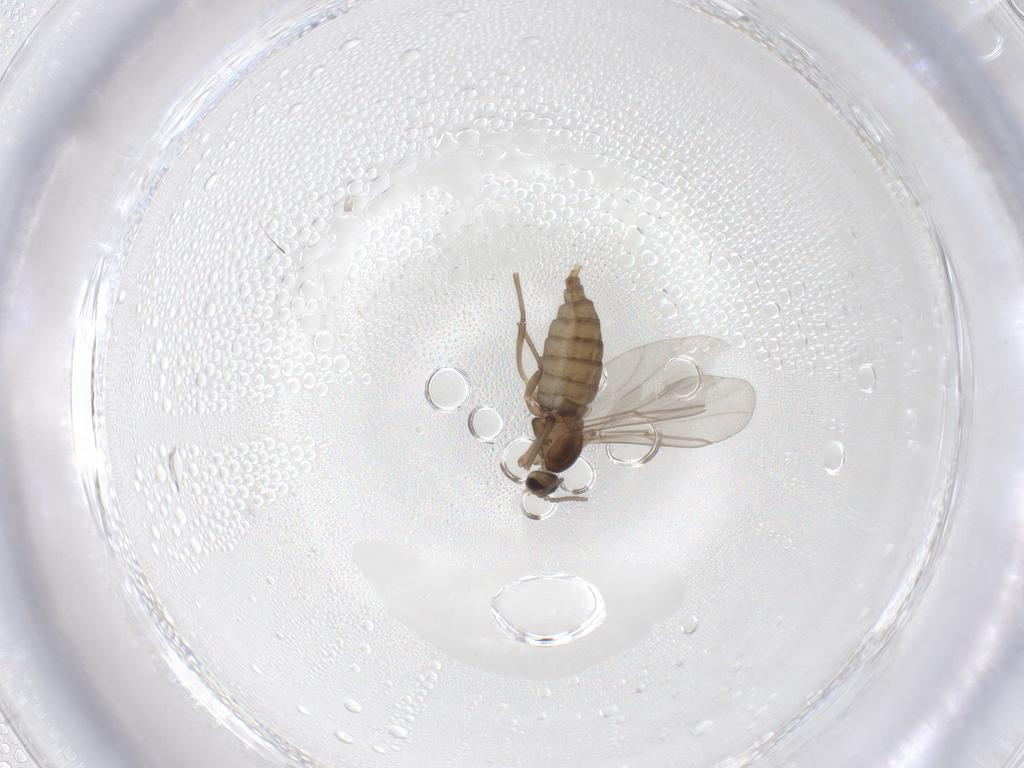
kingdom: Animalia
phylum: Arthropoda
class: Insecta
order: Diptera
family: Cecidomyiidae
